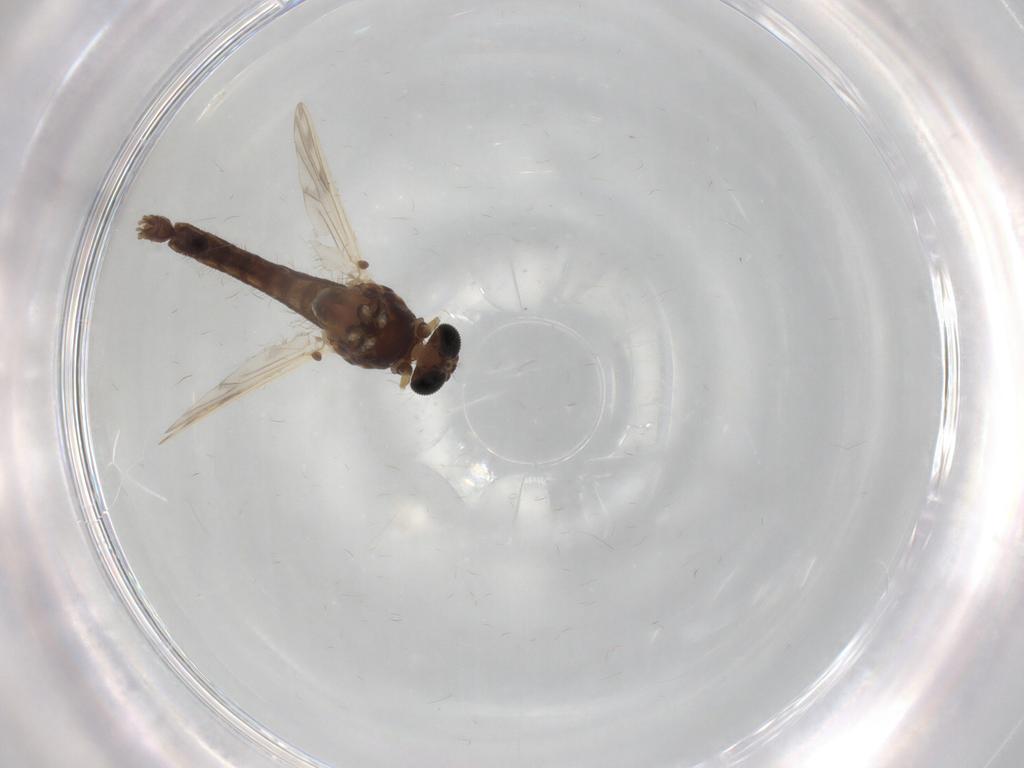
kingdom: Animalia
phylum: Arthropoda
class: Insecta
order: Diptera
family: Chironomidae
